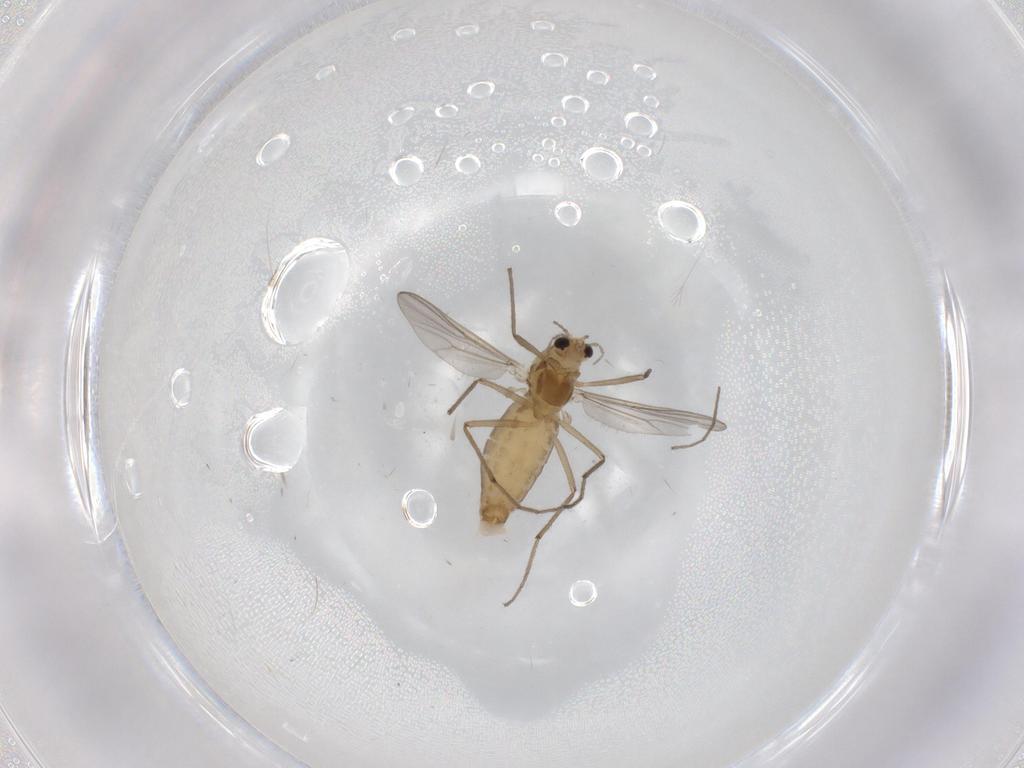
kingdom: Animalia
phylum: Arthropoda
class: Insecta
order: Diptera
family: Chironomidae
